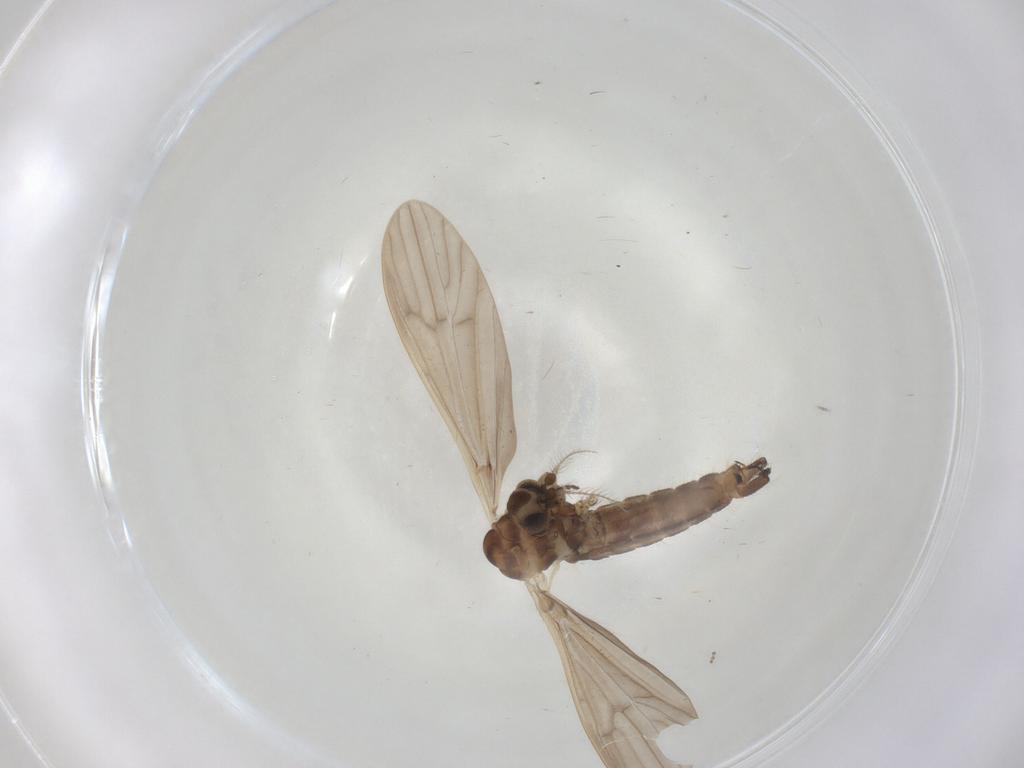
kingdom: Animalia
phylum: Arthropoda
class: Insecta
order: Diptera
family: Limoniidae
